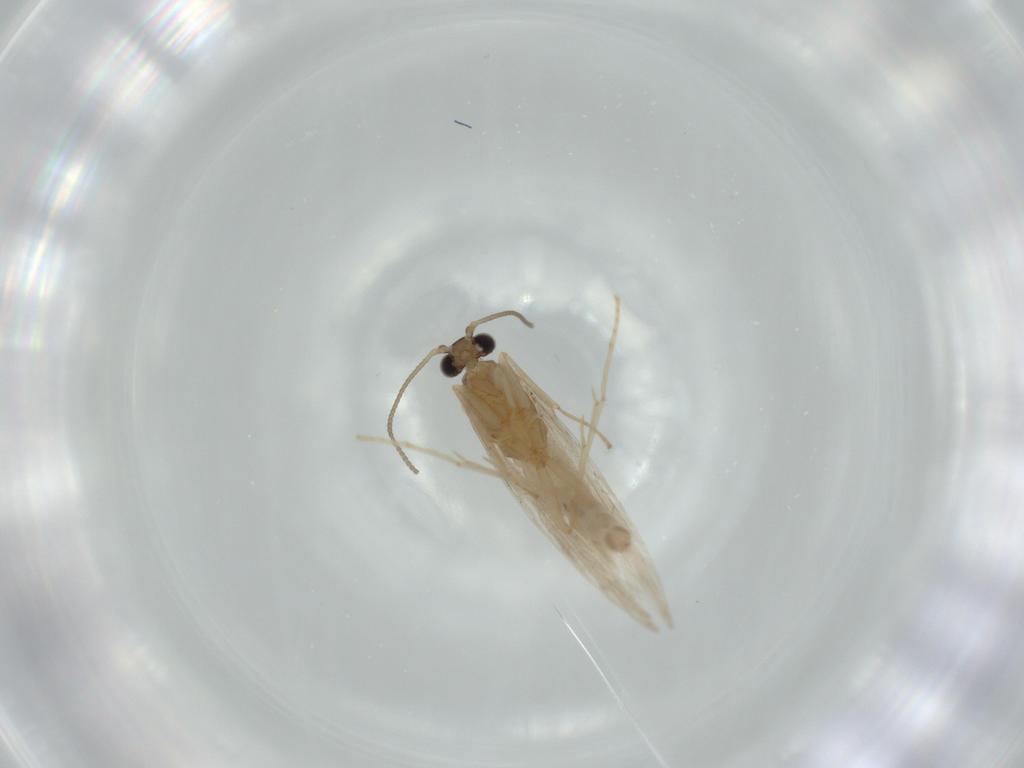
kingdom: Animalia
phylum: Arthropoda
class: Insecta
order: Trichoptera
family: Hydroptilidae
